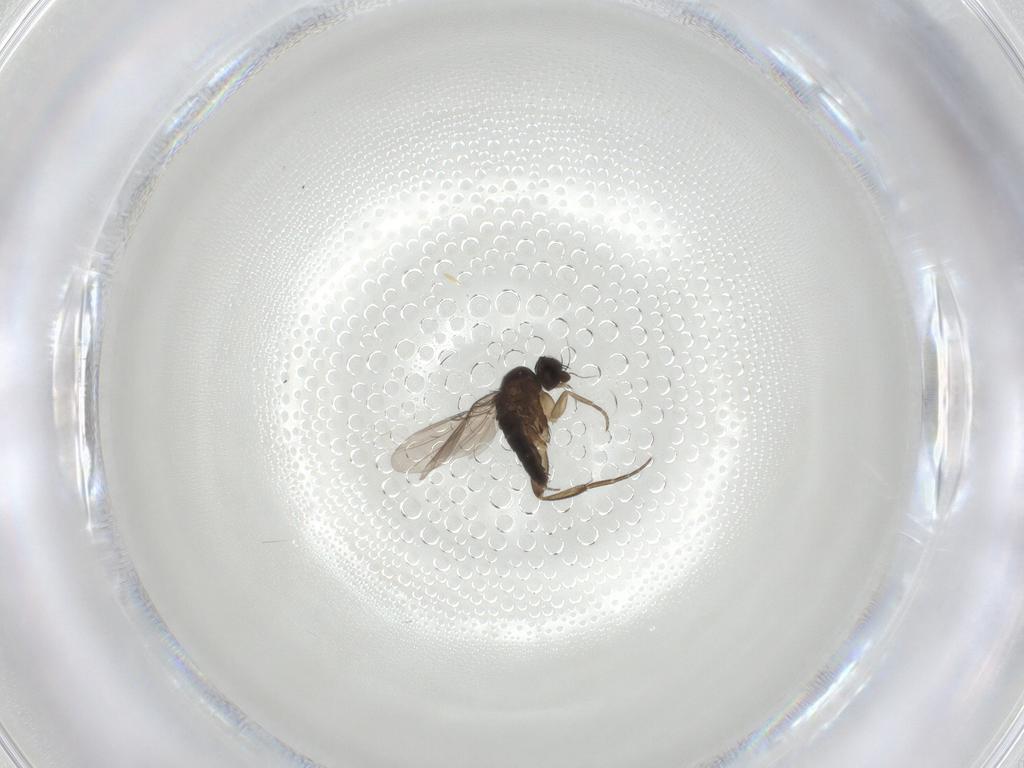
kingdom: Animalia
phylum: Arthropoda
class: Insecta
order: Diptera
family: Phoridae
